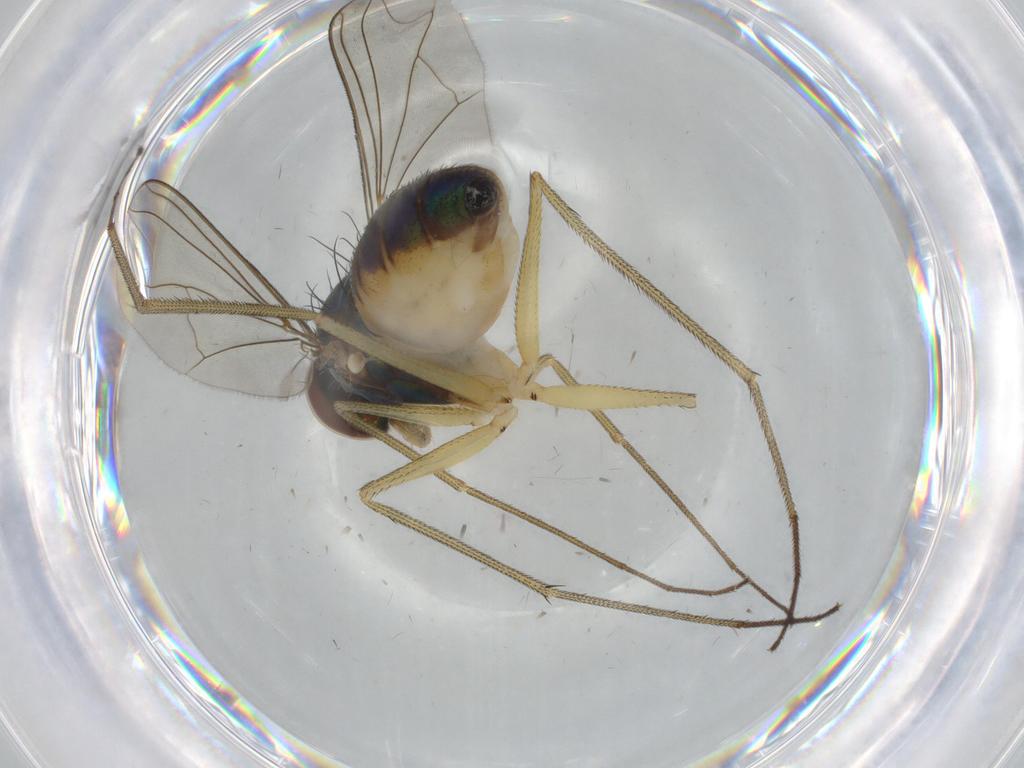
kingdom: Animalia
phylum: Arthropoda
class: Insecta
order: Diptera
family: Dolichopodidae
